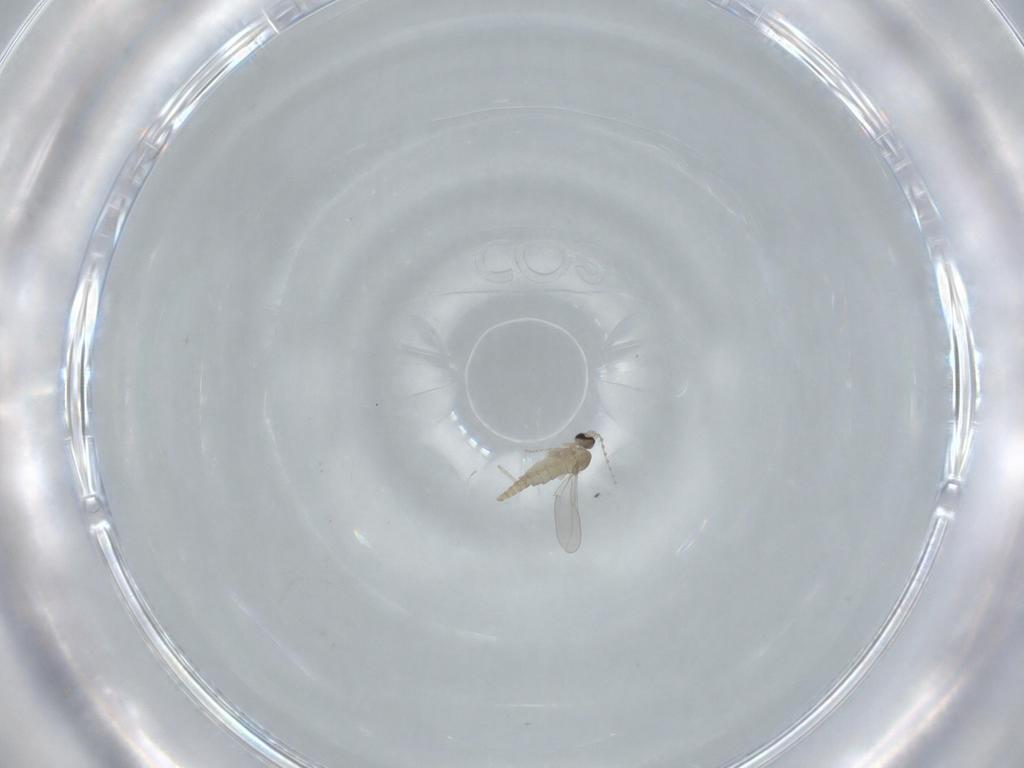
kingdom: Animalia
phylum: Arthropoda
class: Insecta
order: Diptera
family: Cecidomyiidae
